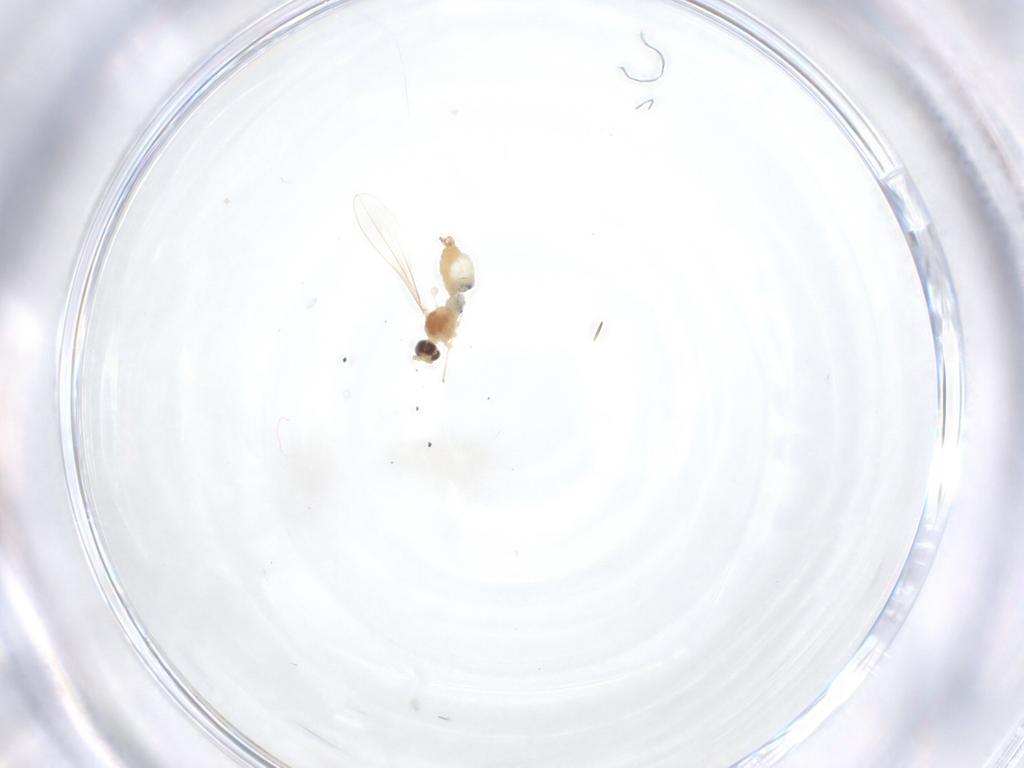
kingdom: Animalia
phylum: Arthropoda
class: Insecta
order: Diptera
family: Cecidomyiidae
